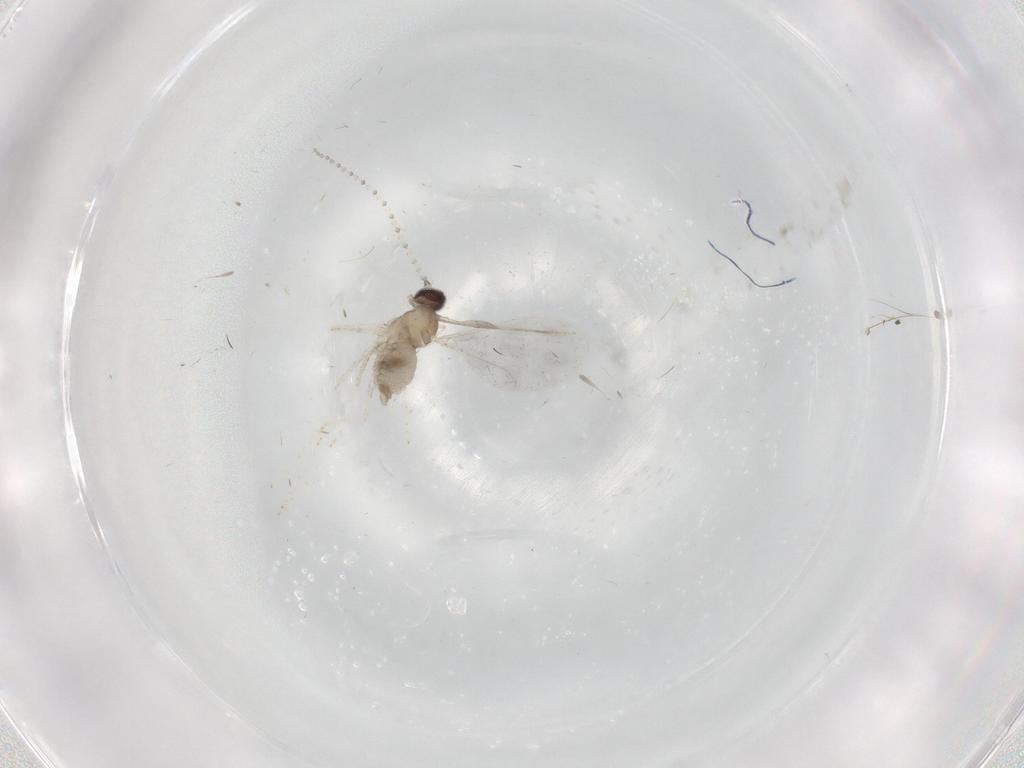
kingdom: Animalia
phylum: Arthropoda
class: Insecta
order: Diptera
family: Cecidomyiidae
